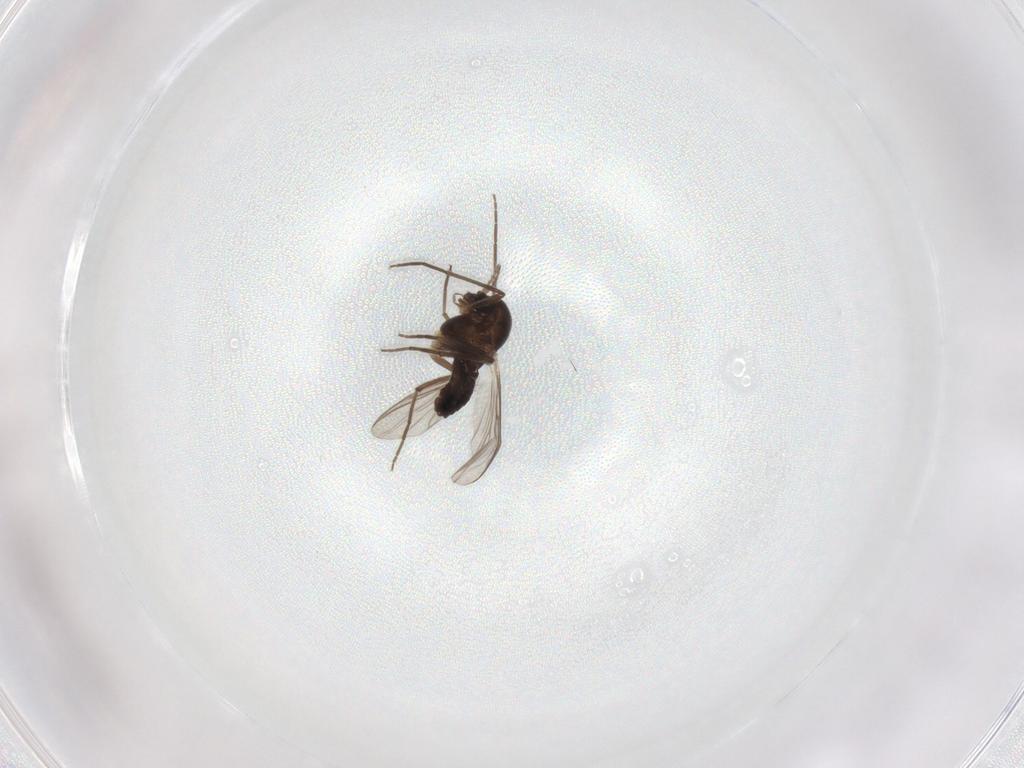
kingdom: Animalia
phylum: Arthropoda
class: Insecta
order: Diptera
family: Chironomidae
